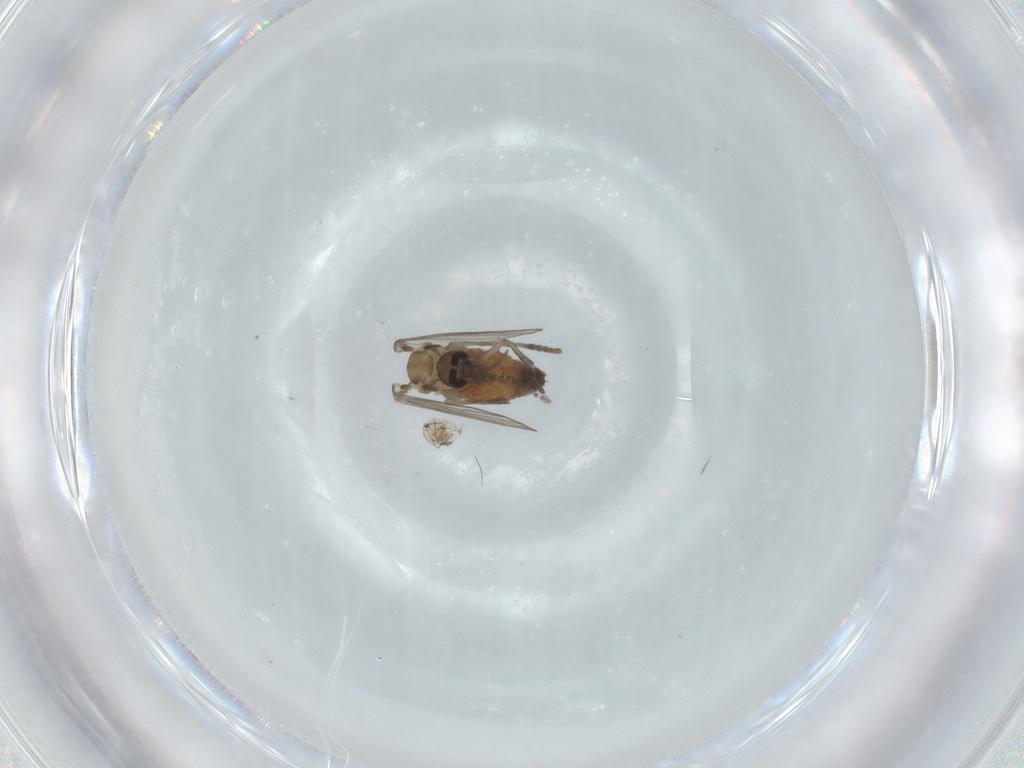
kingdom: Animalia
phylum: Arthropoda
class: Insecta
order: Diptera
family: Psychodidae
